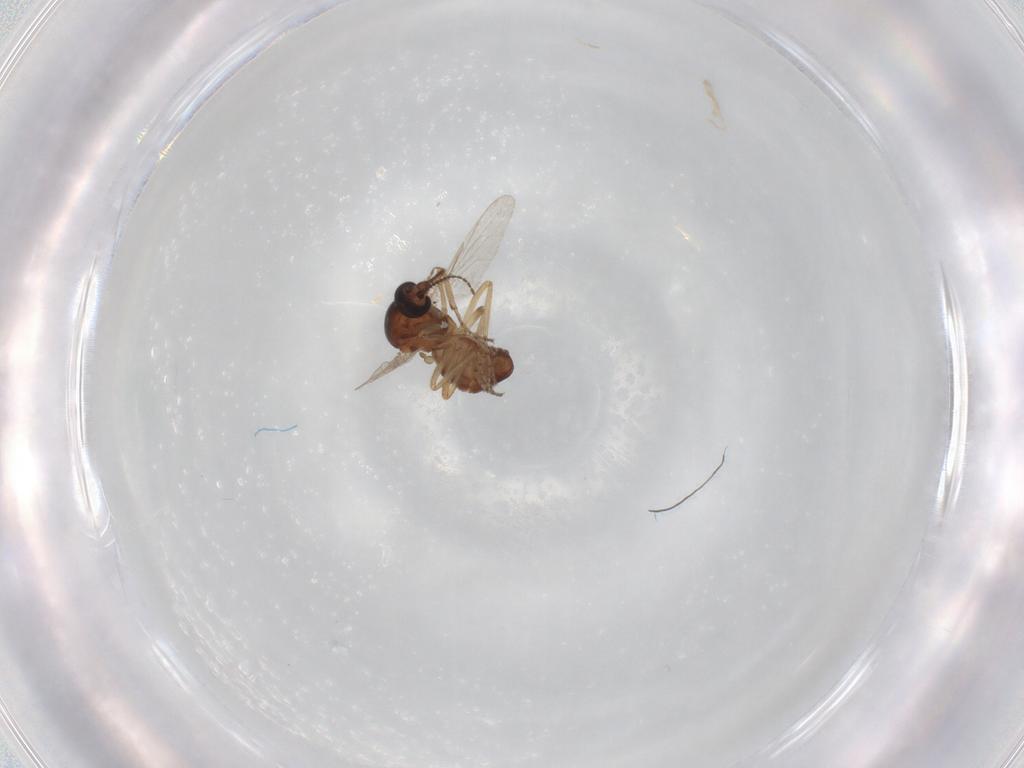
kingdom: Animalia
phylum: Arthropoda
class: Insecta
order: Diptera
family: Ceratopogonidae
